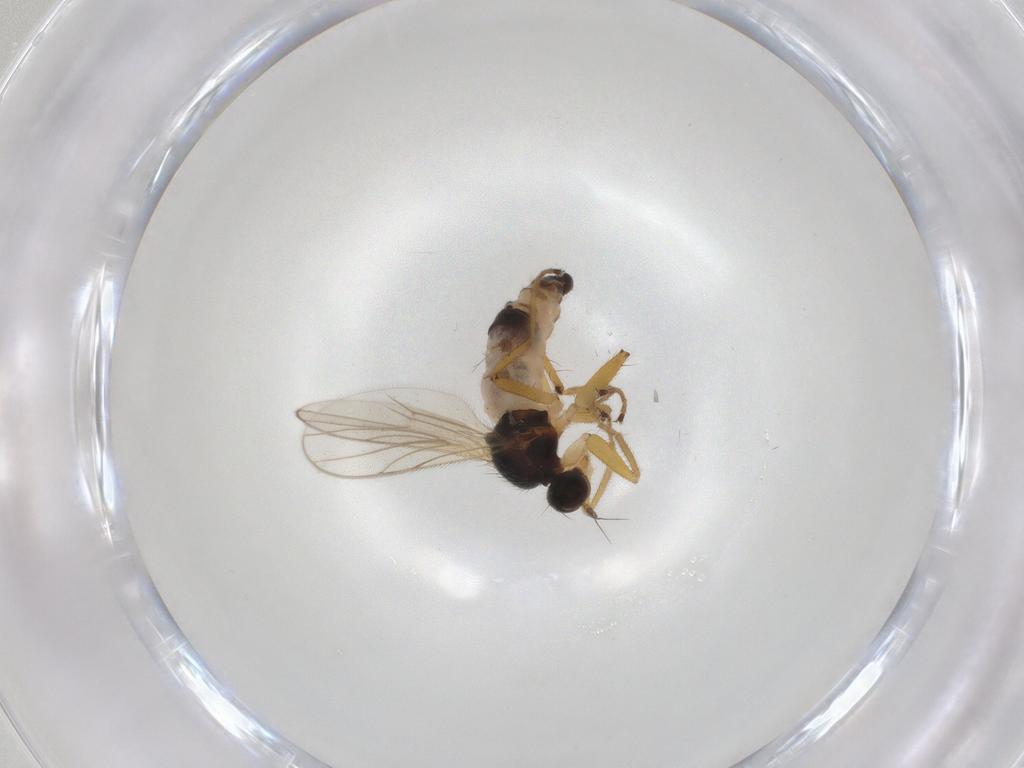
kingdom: Animalia
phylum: Arthropoda
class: Insecta
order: Diptera
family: Hybotidae
